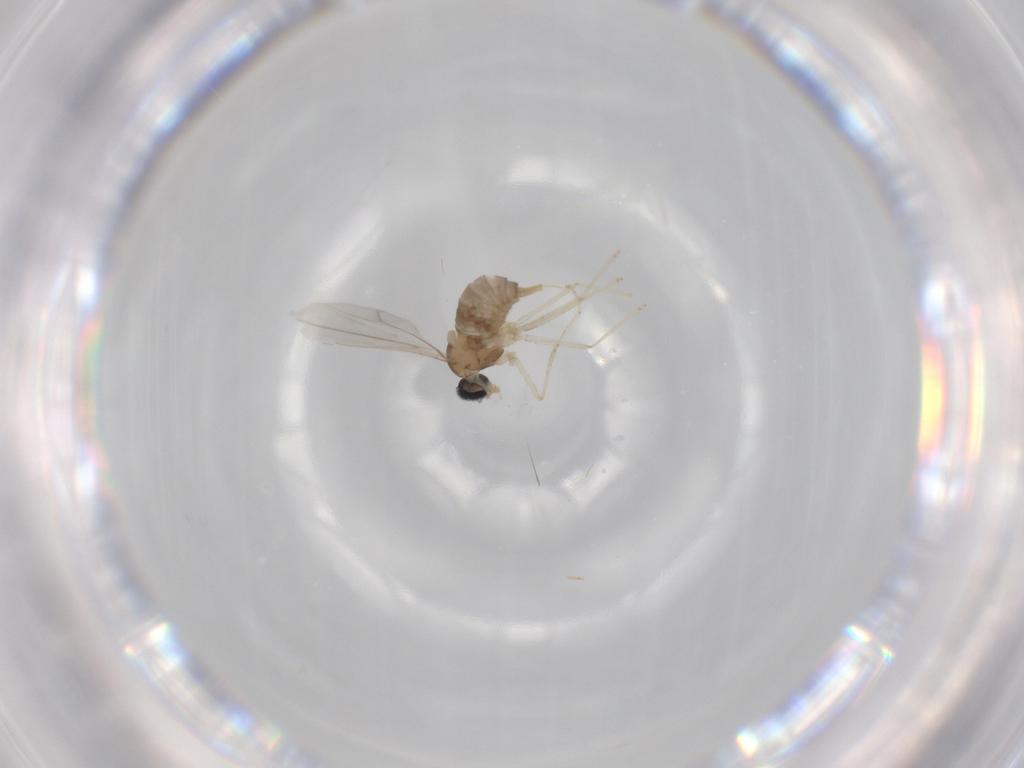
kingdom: Animalia
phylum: Arthropoda
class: Insecta
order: Diptera
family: Cecidomyiidae
